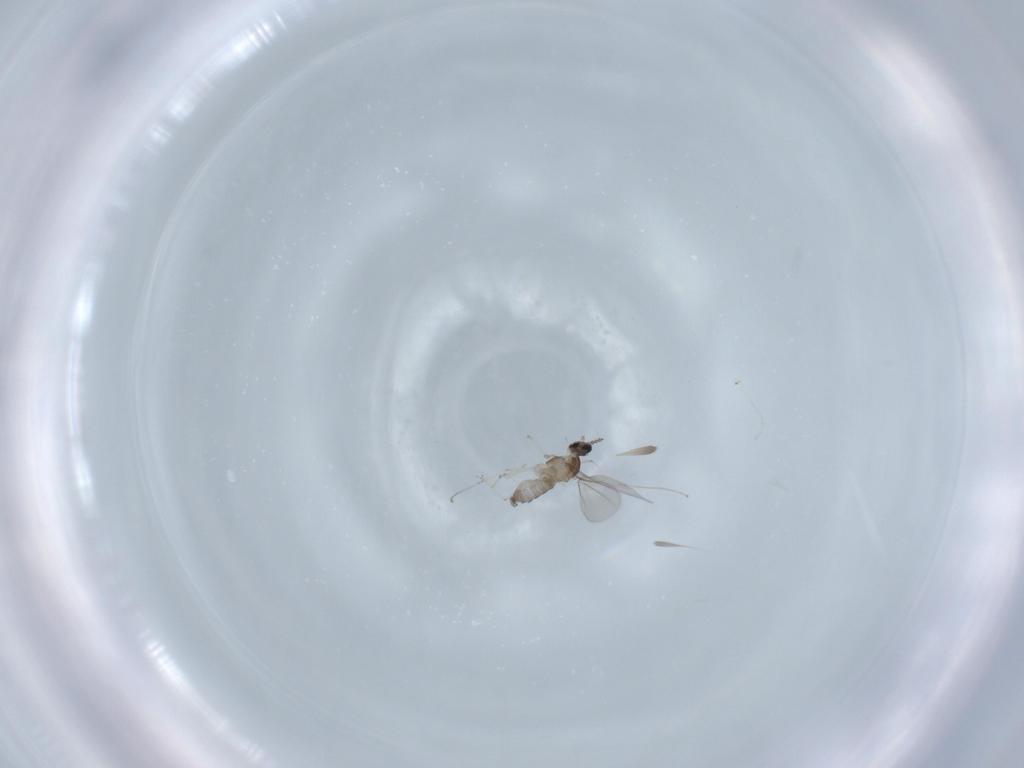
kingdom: Animalia
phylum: Arthropoda
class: Insecta
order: Diptera
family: Cecidomyiidae
